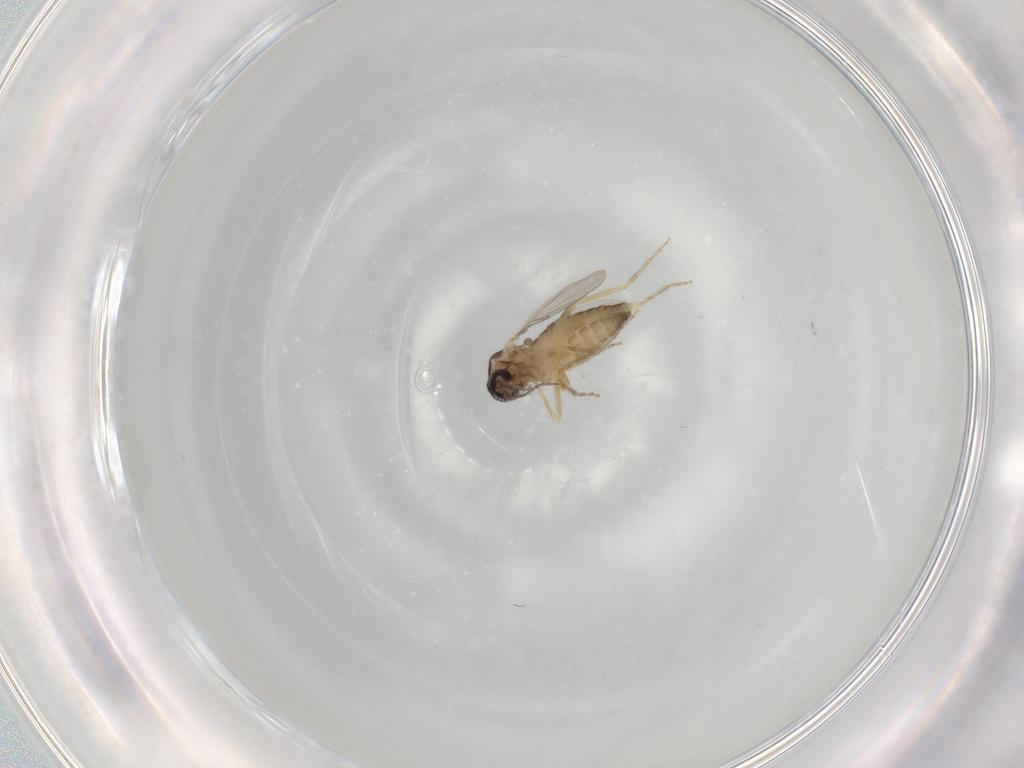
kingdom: Animalia
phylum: Arthropoda
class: Insecta
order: Diptera
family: Ceratopogonidae
